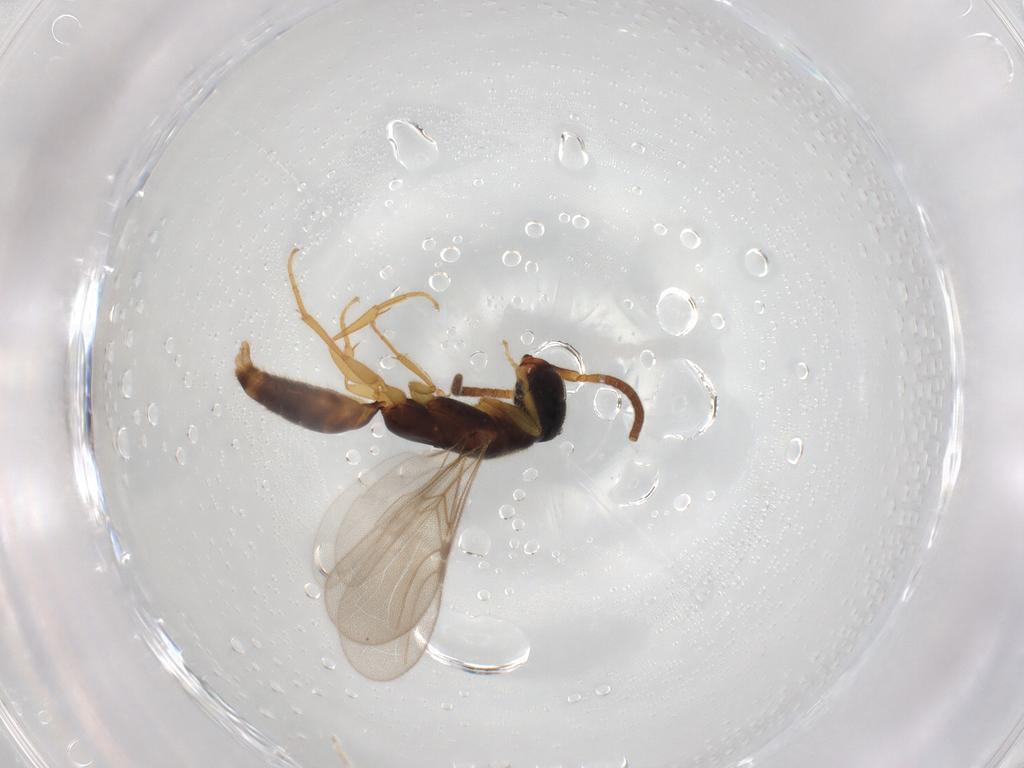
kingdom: Animalia
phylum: Arthropoda
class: Insecta
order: Hymenoptera
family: Bethylidae
